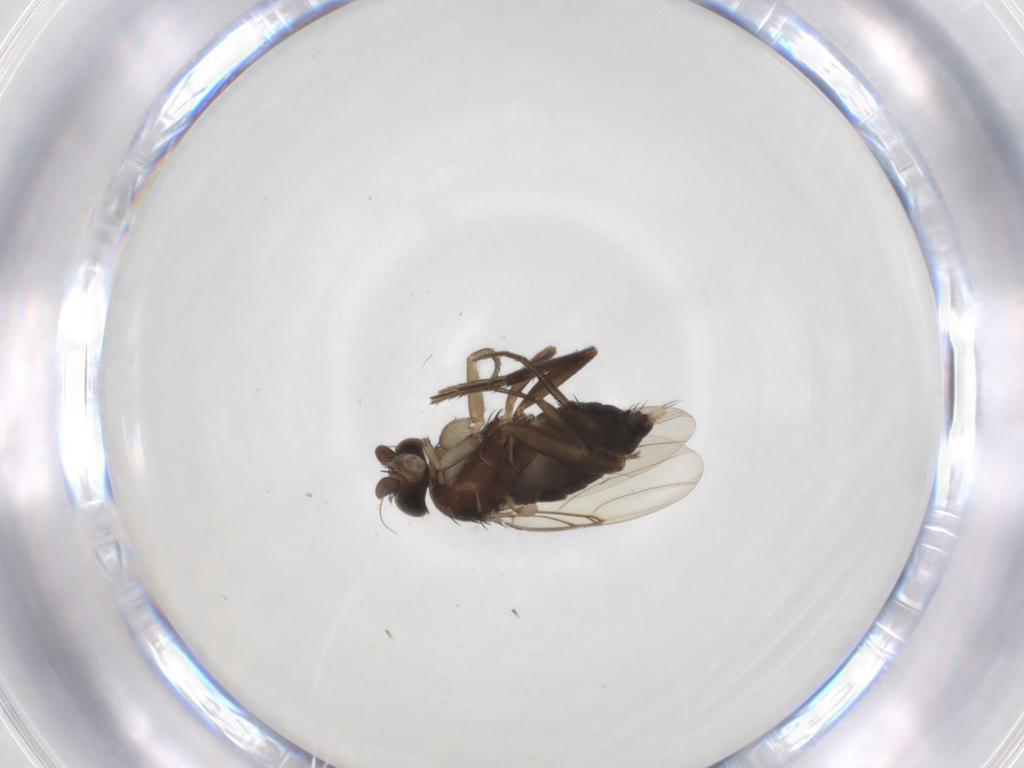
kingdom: Animalia
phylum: Arthropoda
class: Insecta
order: Diptera
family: Phoridae
